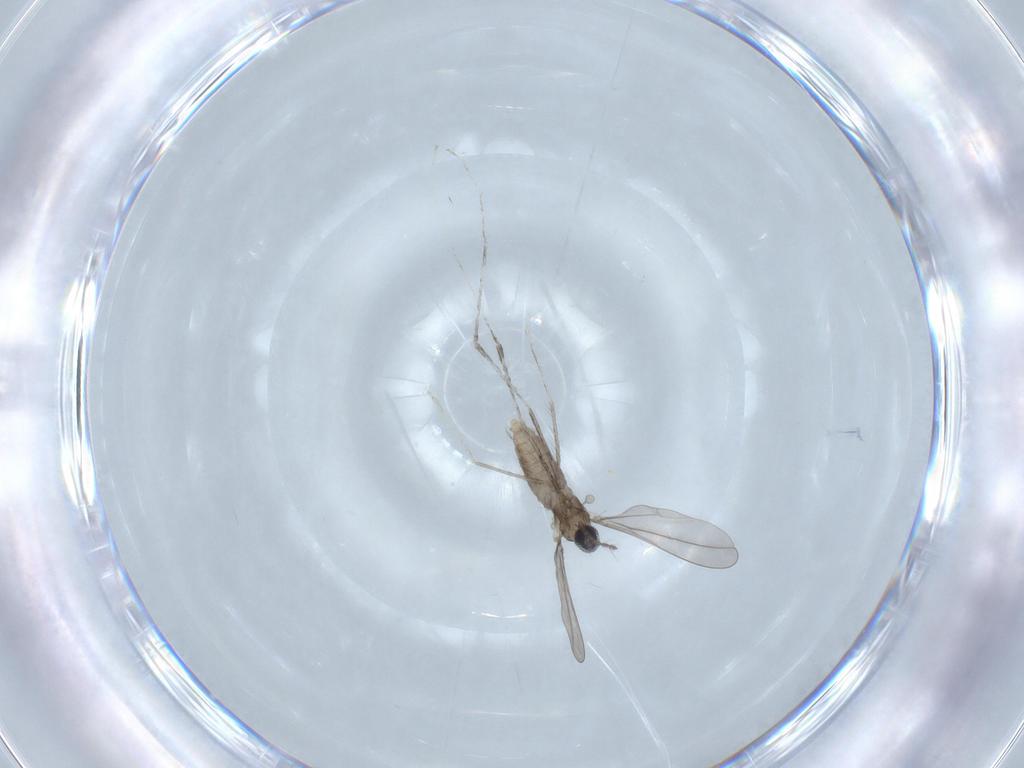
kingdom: Animalia
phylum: Arthropoda
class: Insecta
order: Diptera
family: Cecidomyiidae
